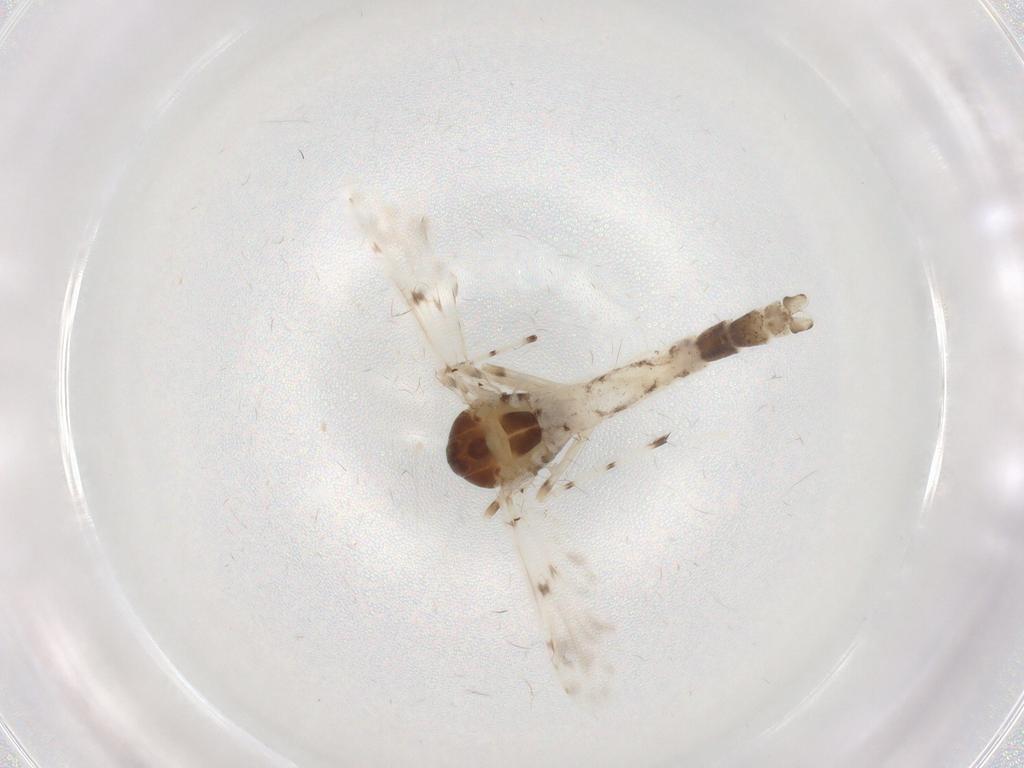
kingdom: Animalia
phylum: Arthropoda
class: Insecta
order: Diptera
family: Chironomidae
